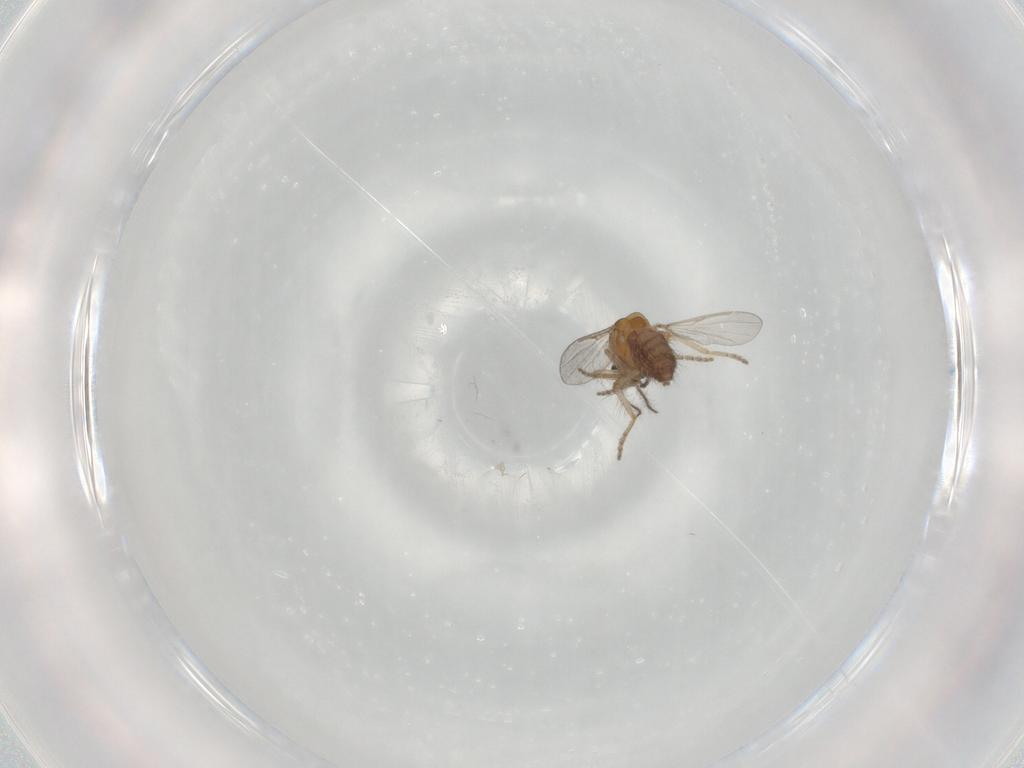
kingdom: Animalia
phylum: Arthropoda
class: Insecta
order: Diptera
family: Ceratopogonidae
